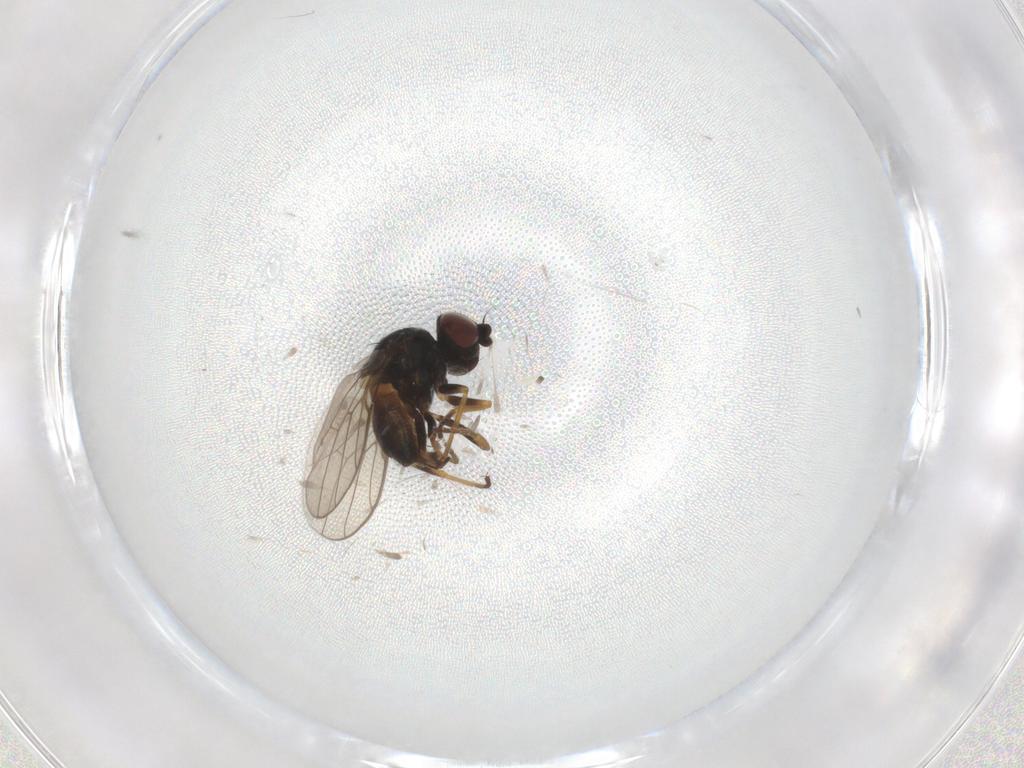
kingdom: Animalia
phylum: Arthropoda
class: Insecta
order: Diptera
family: Chloropidae
